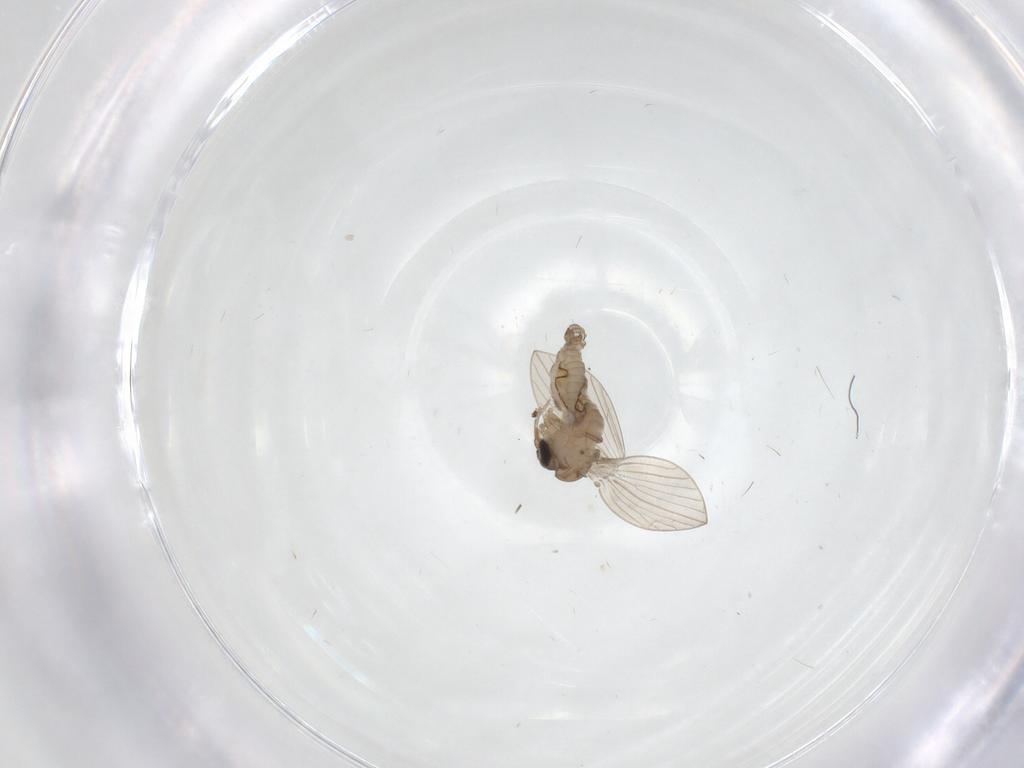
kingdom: Animalia
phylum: Arthropoda
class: Insecta
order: Diptera
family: Psychodidae
